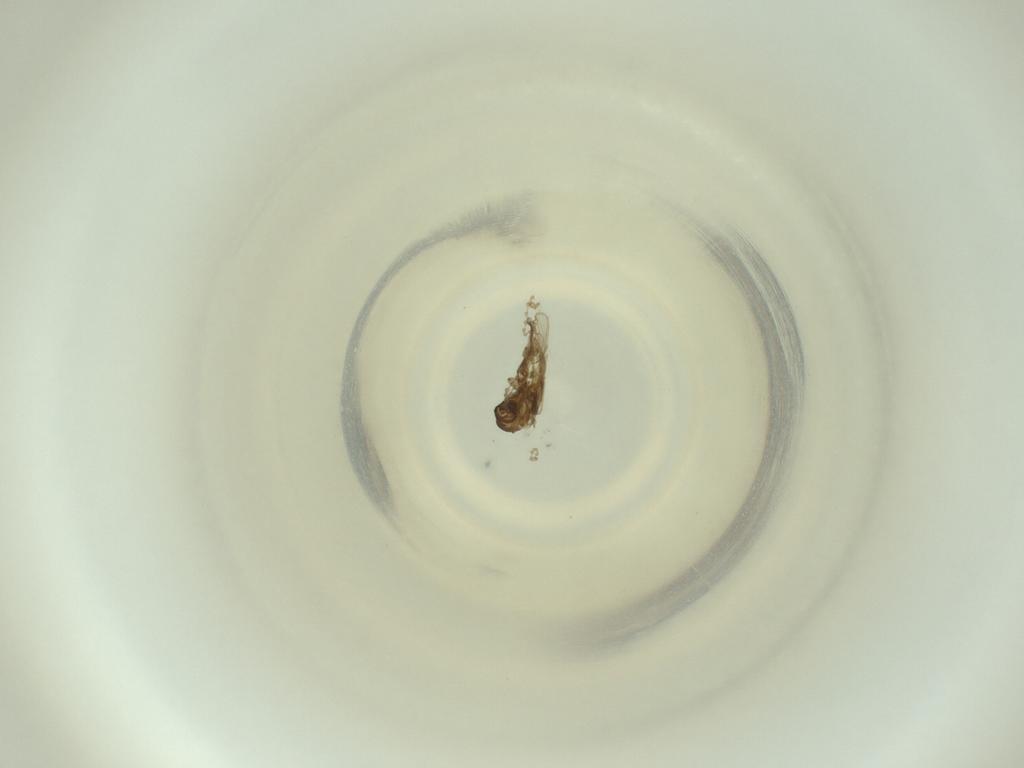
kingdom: Animalia
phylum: Arthropoda
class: Insecta
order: Diptera
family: Cecidomyiidae
